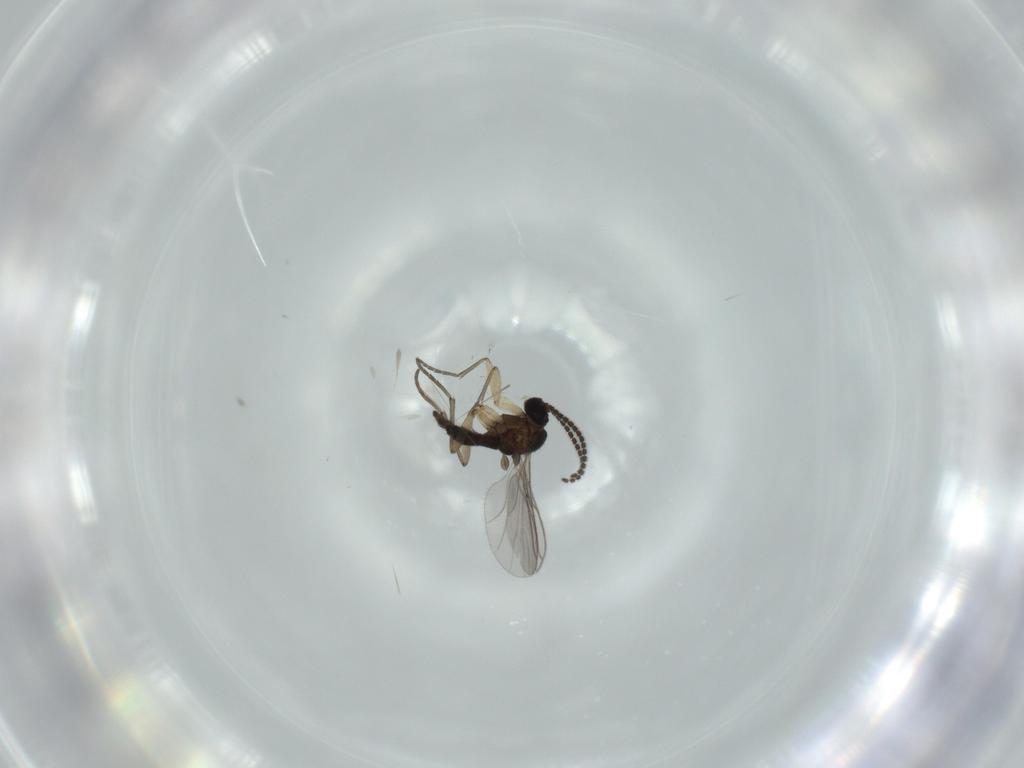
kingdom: Animalia
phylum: Arthropoda
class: Insecta
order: Diptera
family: Sciaridae
